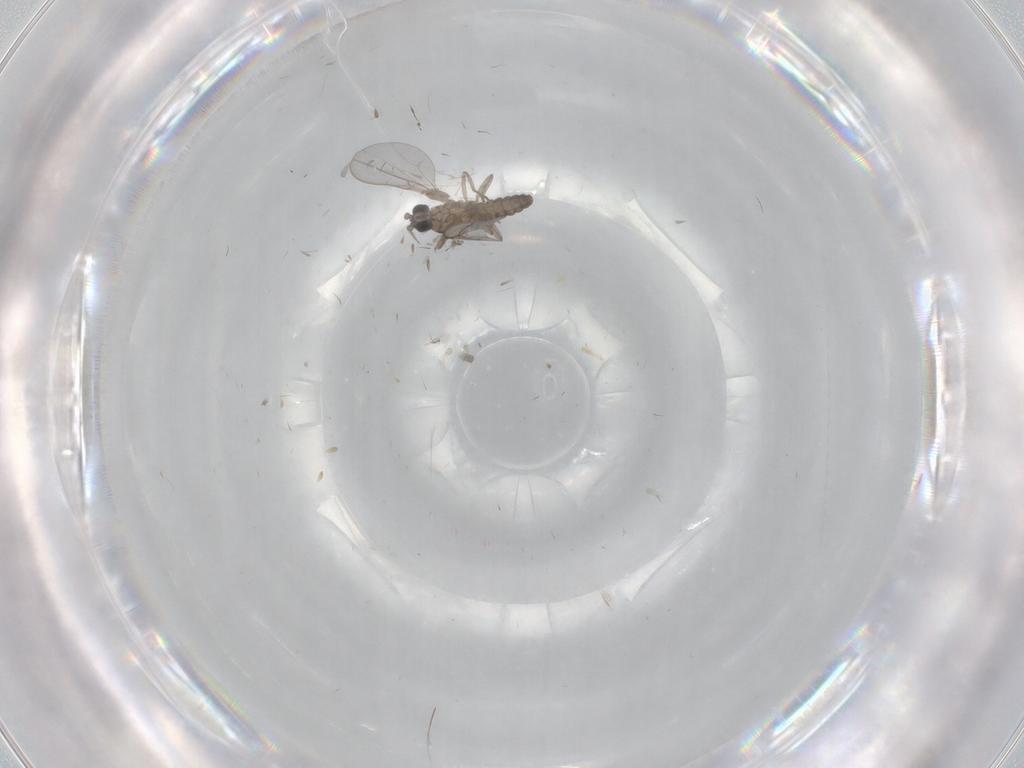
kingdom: Animalia
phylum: Arthropoda
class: Insecta
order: Diptera
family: Cecidomyiidae
